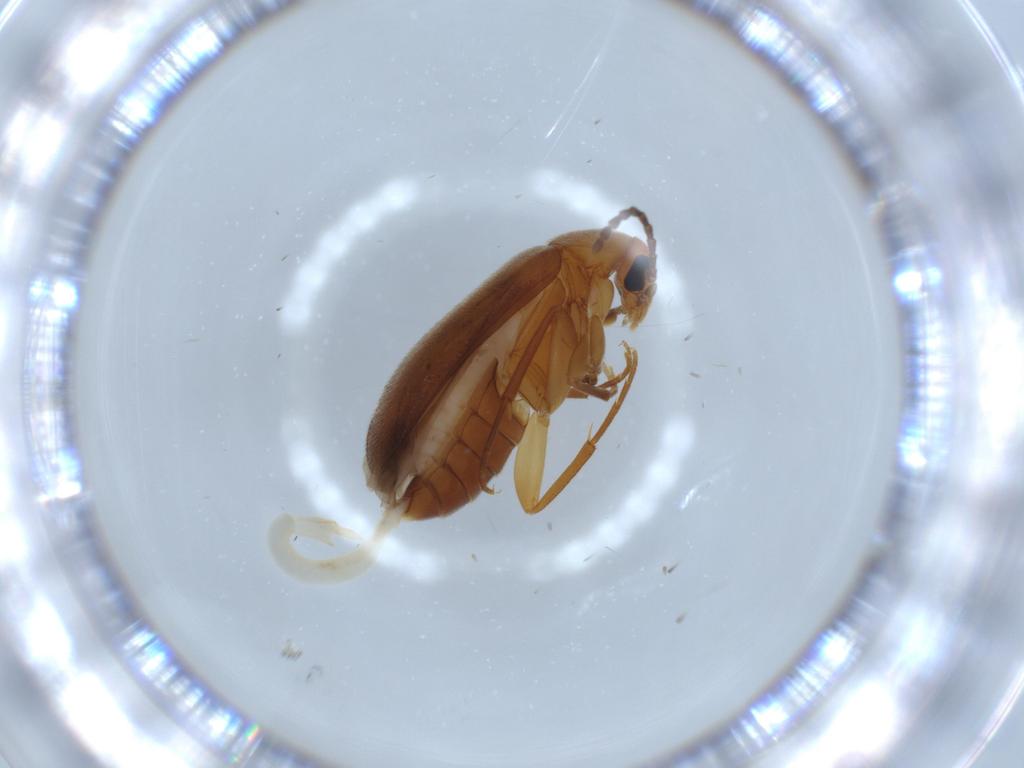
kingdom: Animalia
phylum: Arthropoda
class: Insecta
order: Coleoptera
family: Scraptiidae
